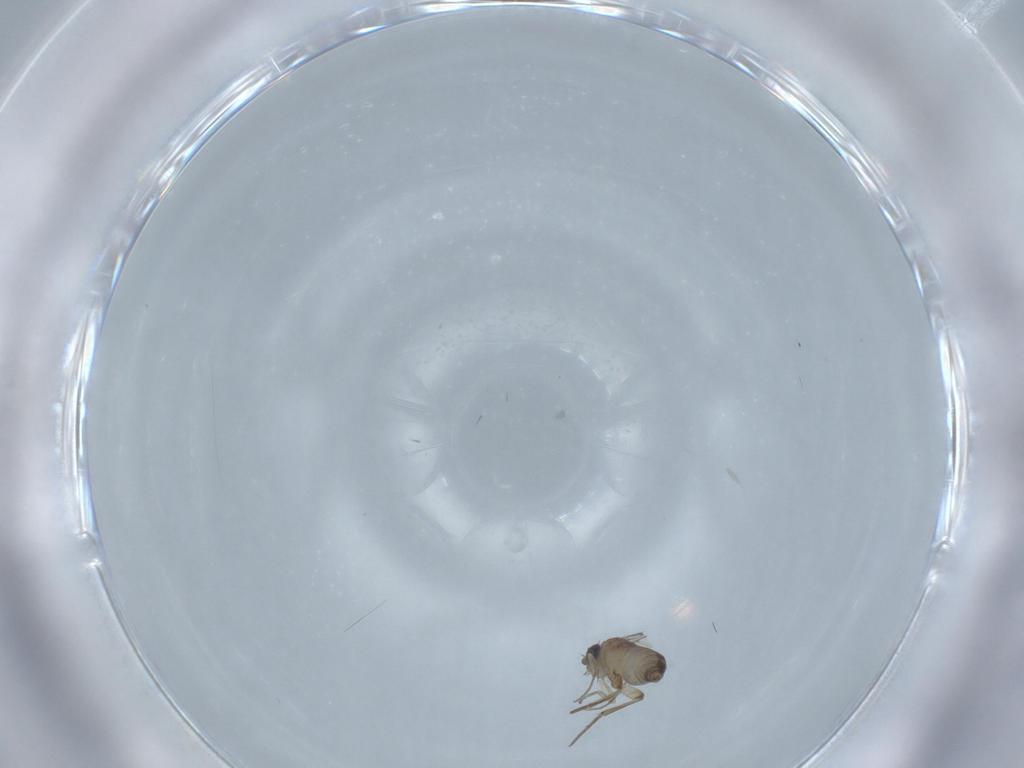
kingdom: Animalia
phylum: Arthropoda
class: Insecta
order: Diptera
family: Phoridae
